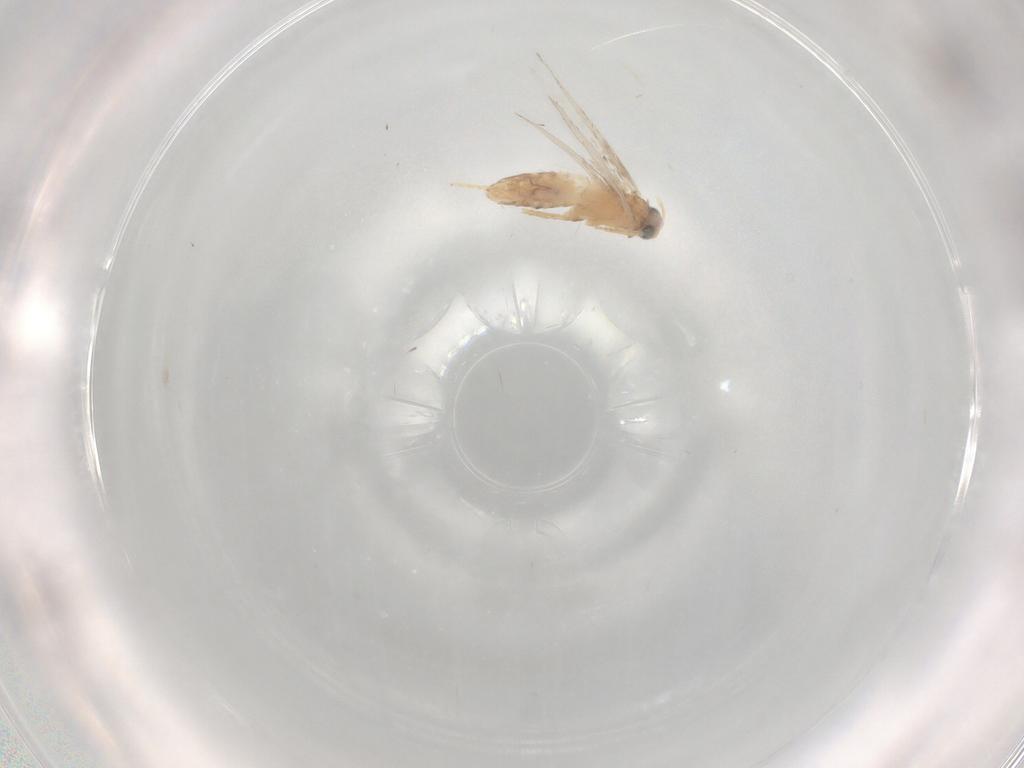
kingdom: Animalia
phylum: Arthropoda
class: Insecta
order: Lepidoptera
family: Nepticulidae
